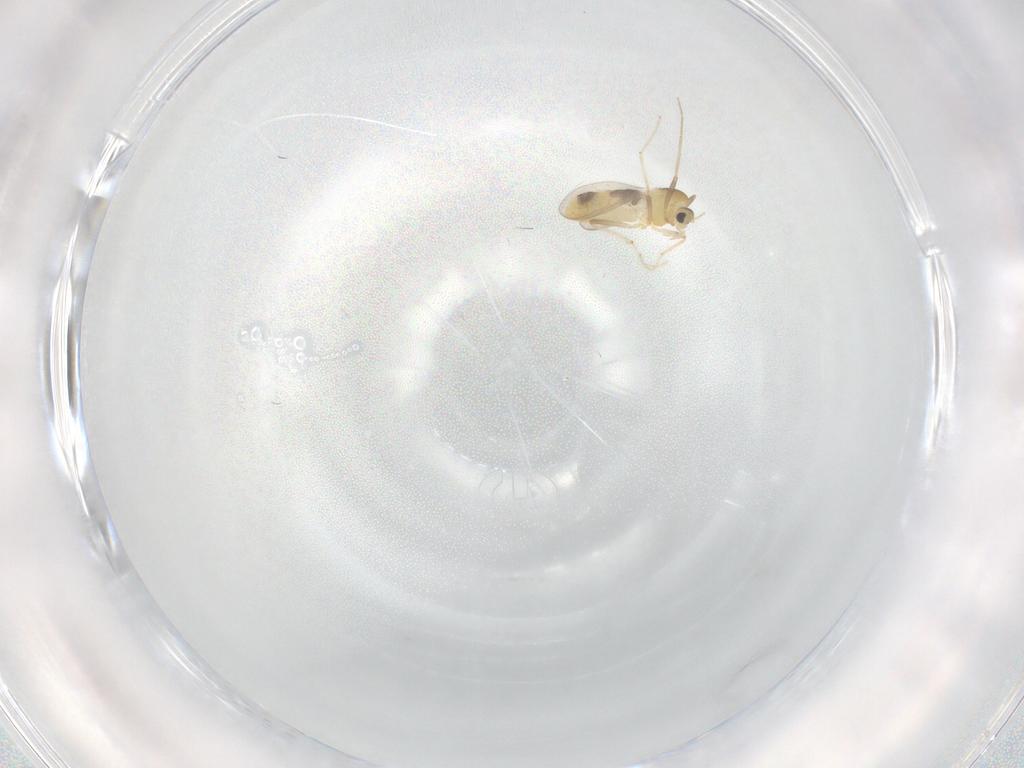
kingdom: Animalia
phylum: Arthropoda
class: Insecta
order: Diptera
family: Chironomidae
